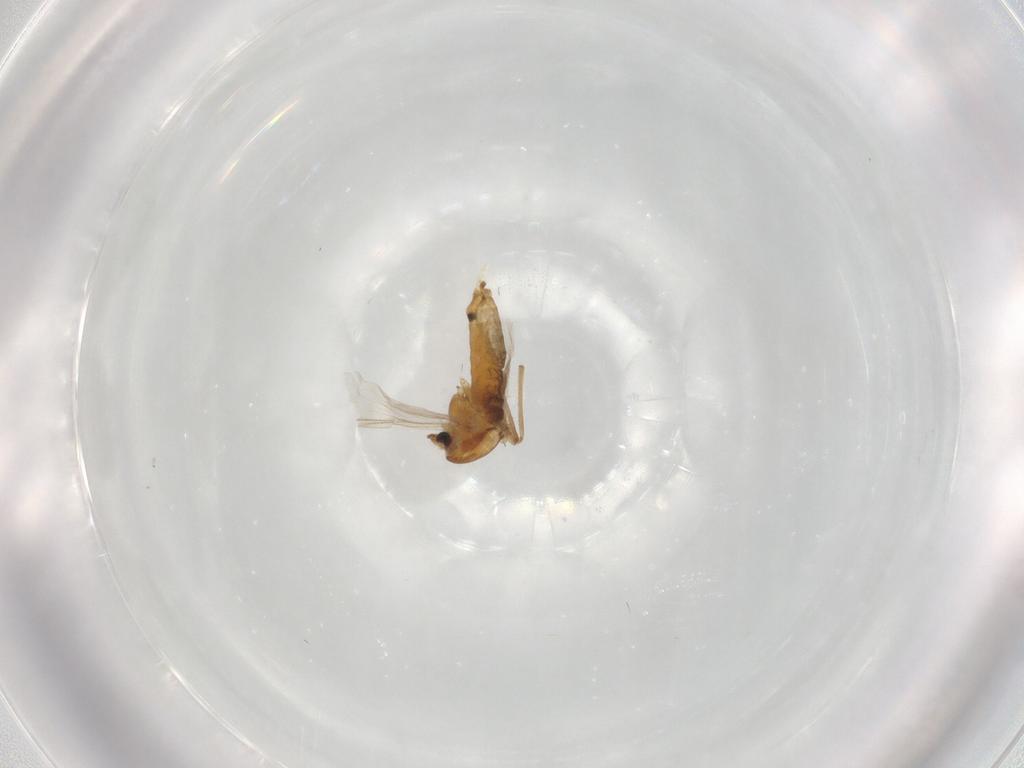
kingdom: Animalia
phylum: Arthropoda
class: Insecta
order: Diptera
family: Chironomidae
